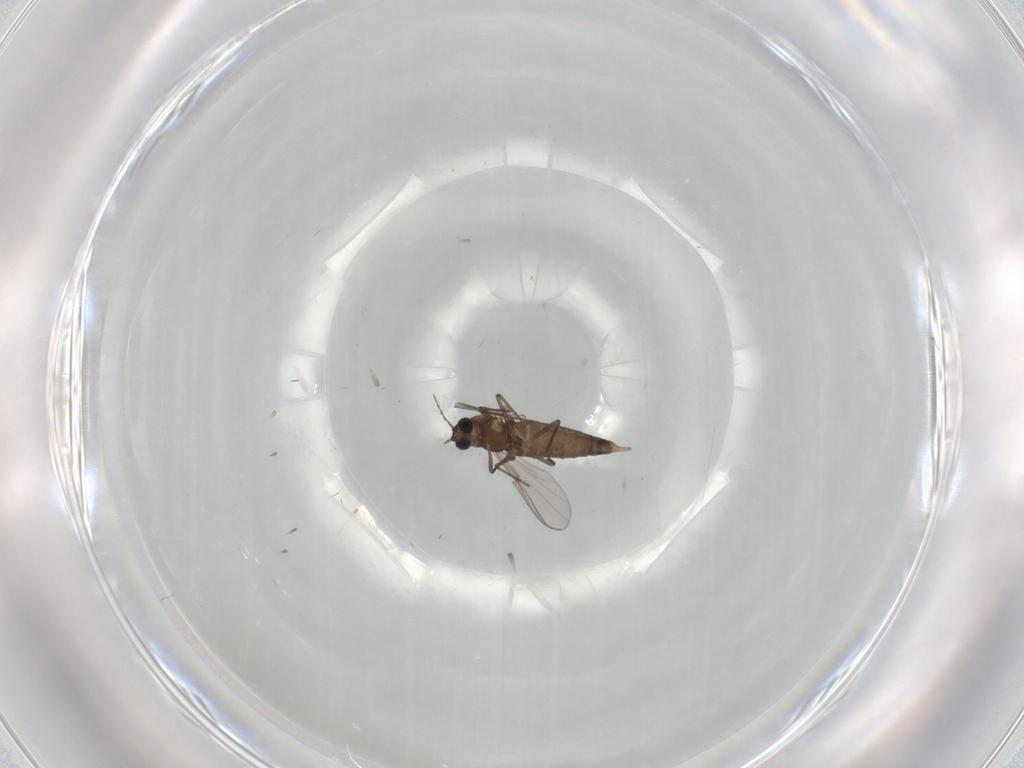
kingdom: Animalia
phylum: Arthropoda
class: Insecta
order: Diptera
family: Chironomidae
